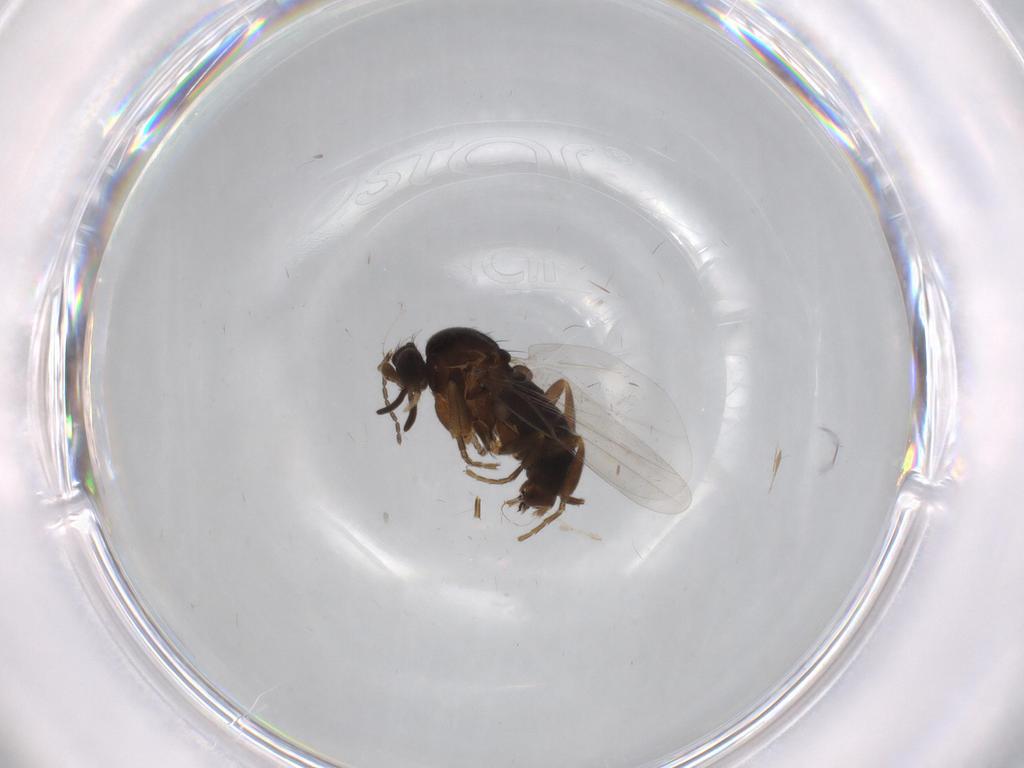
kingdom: Animalia
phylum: Arthropoda
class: Insecta
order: Diptera
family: Phoridae
